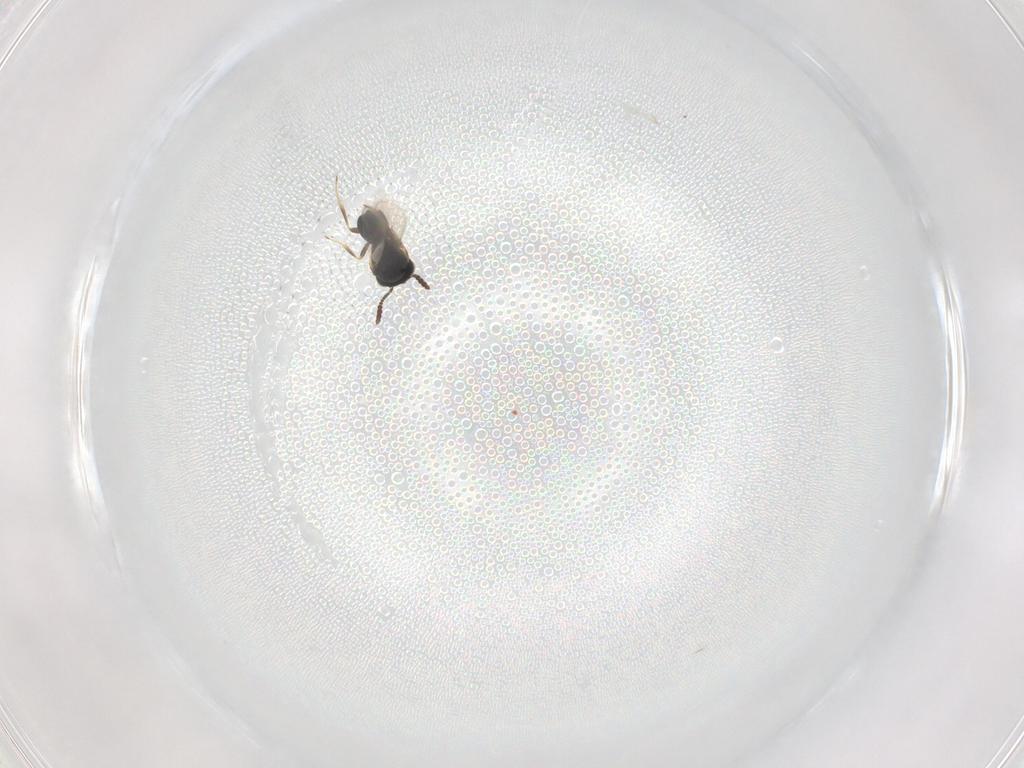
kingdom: Animalia
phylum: Arthropoda
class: Insecta
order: Hymenoptera
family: Scelionidae
